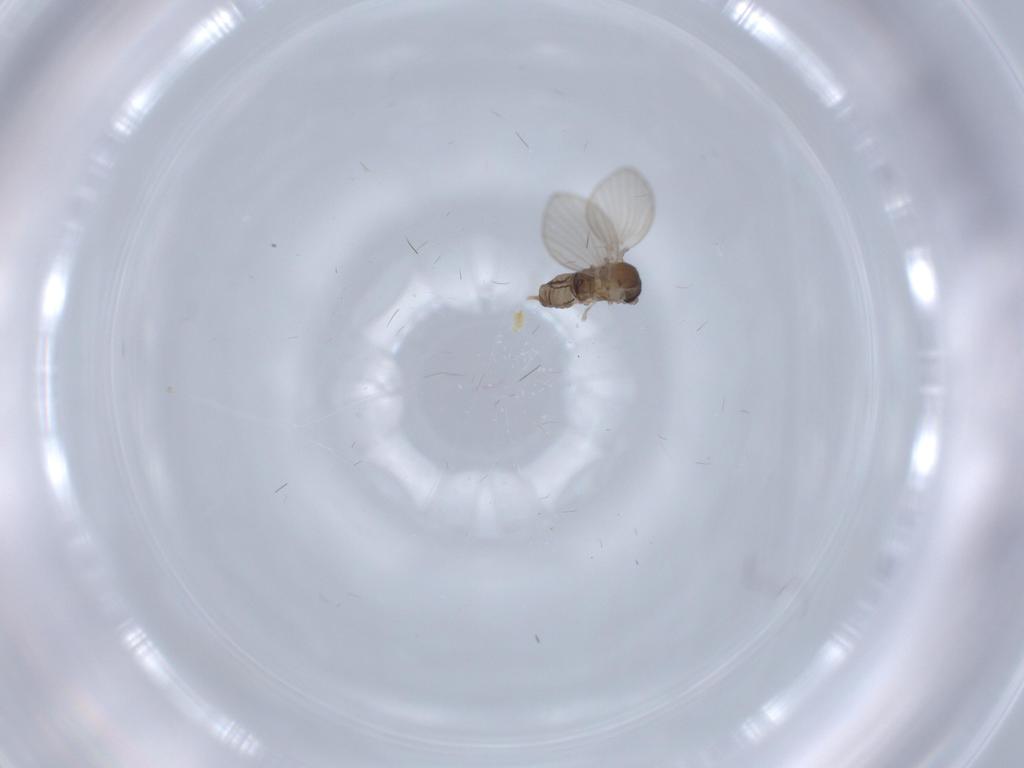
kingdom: Animalia
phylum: Arthropoda
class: Insecta
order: Diptera
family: Psychodidae
